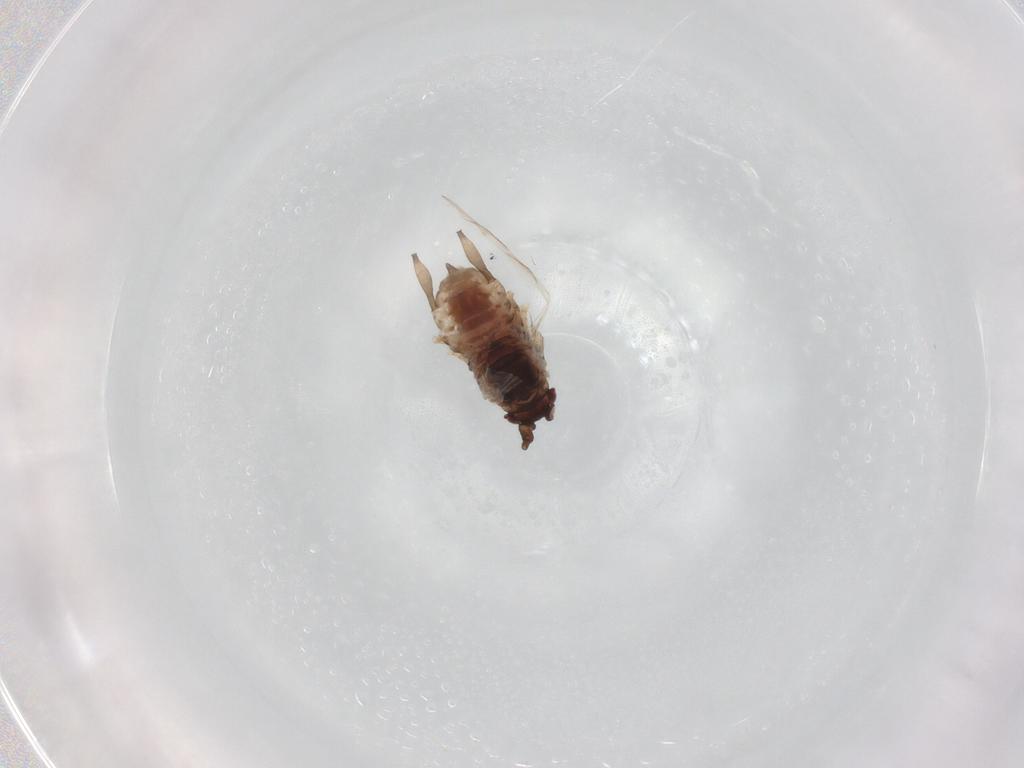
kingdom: Animalia
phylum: Arthropoda
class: Insecta
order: Hemiptera
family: Aphididae
